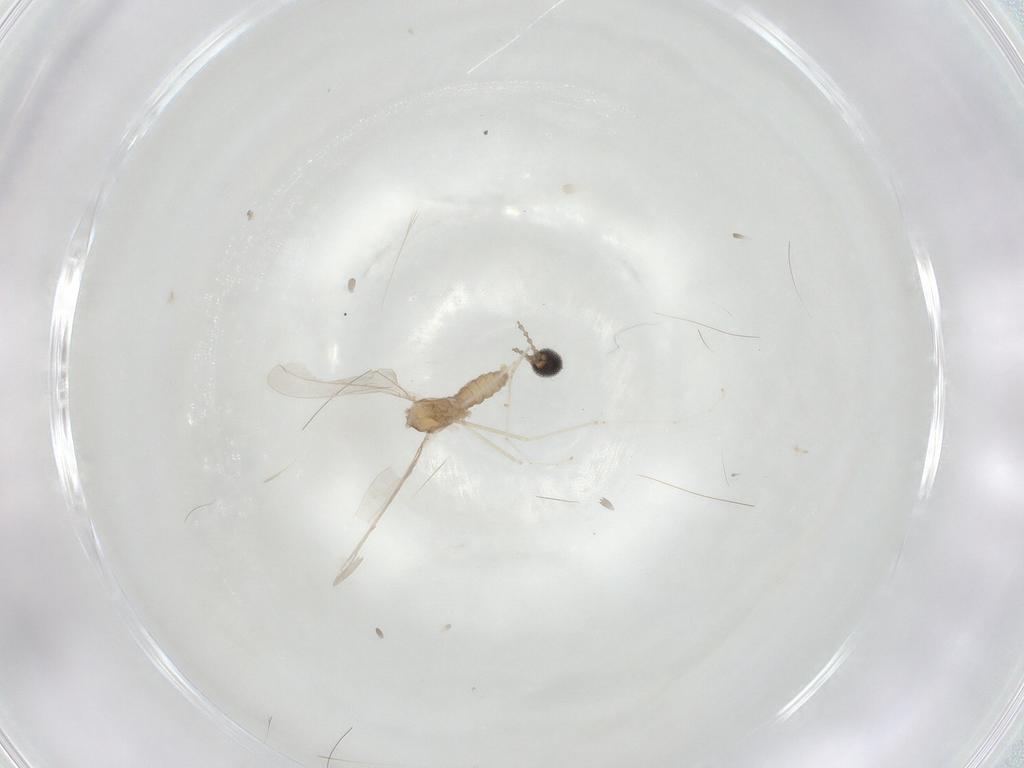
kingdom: Animalia
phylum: Arthropoda
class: Insecta
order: Diptera
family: Cecidomyiidae
